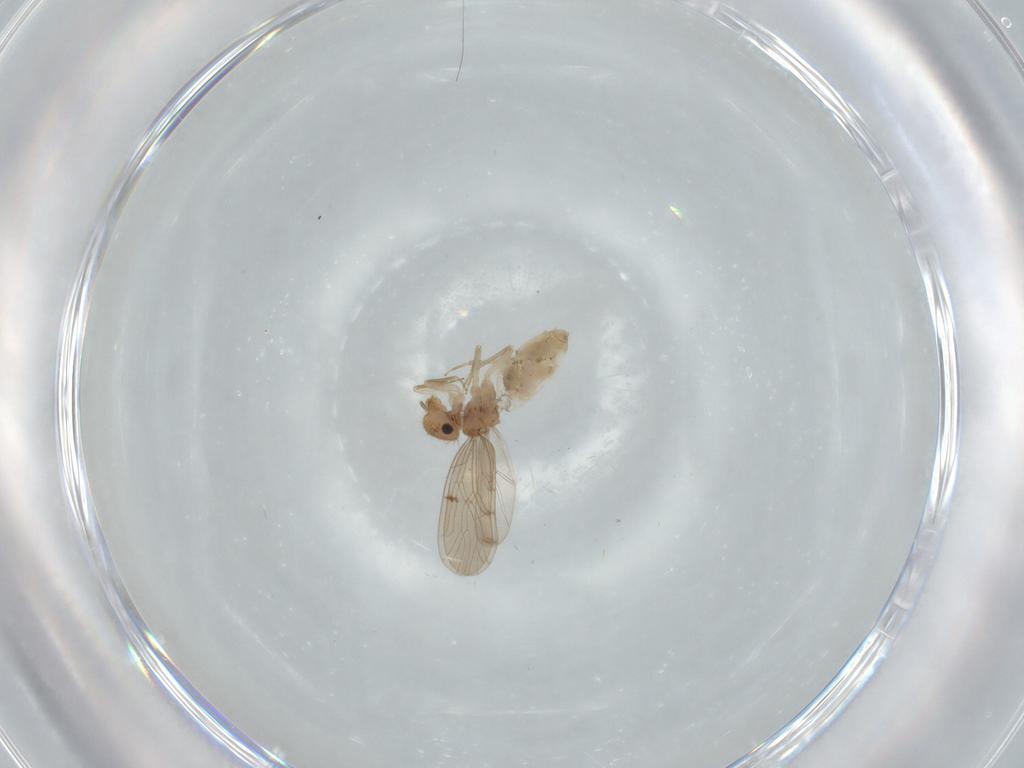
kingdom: Animalia
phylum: Arthropoda
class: Insecta
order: Psocodea
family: Ectopsocidae
